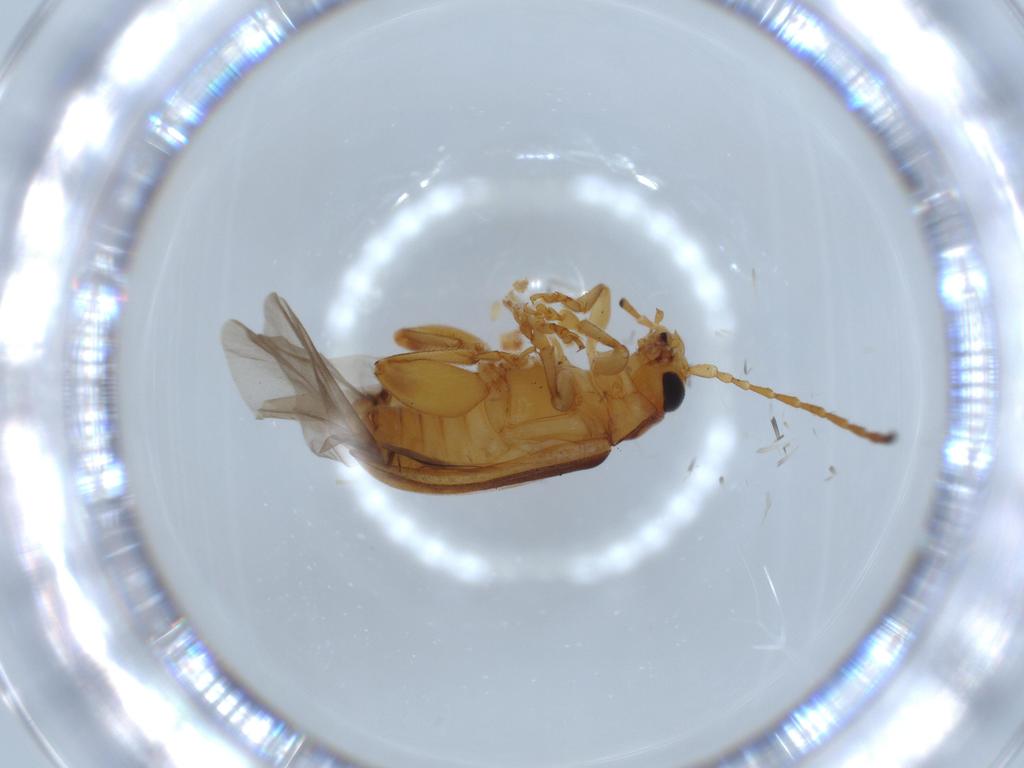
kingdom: Animalia
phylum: Arthropoda
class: Insecta
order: Coleoptera
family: Chrysomelidae
